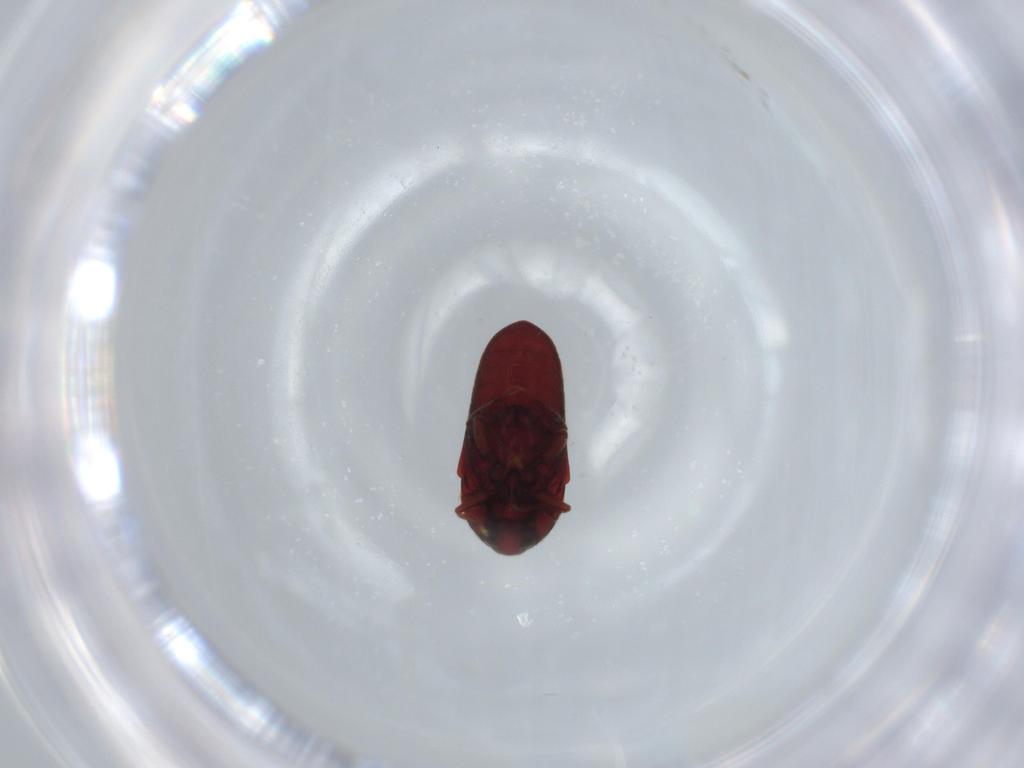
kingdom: Animalia
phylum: Arthropoda
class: Insecta
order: Coleoptera
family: Throscidae
